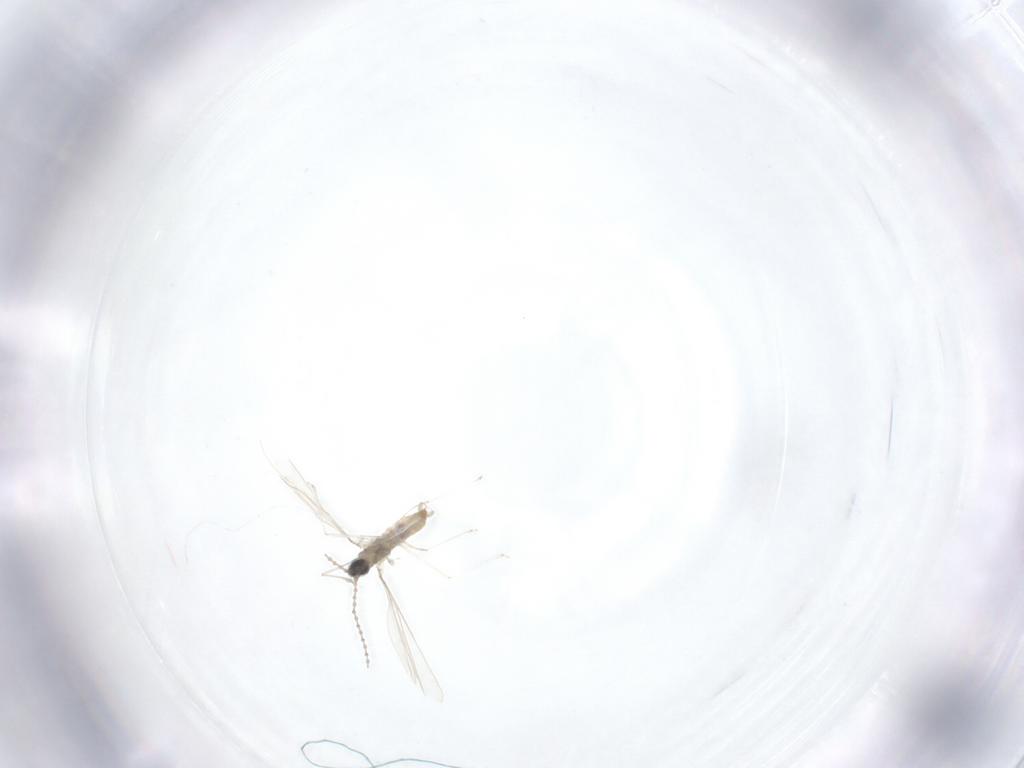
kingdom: Animalia
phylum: Arthropoda
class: Insecta
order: Diptera
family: Cecidomyiidae
